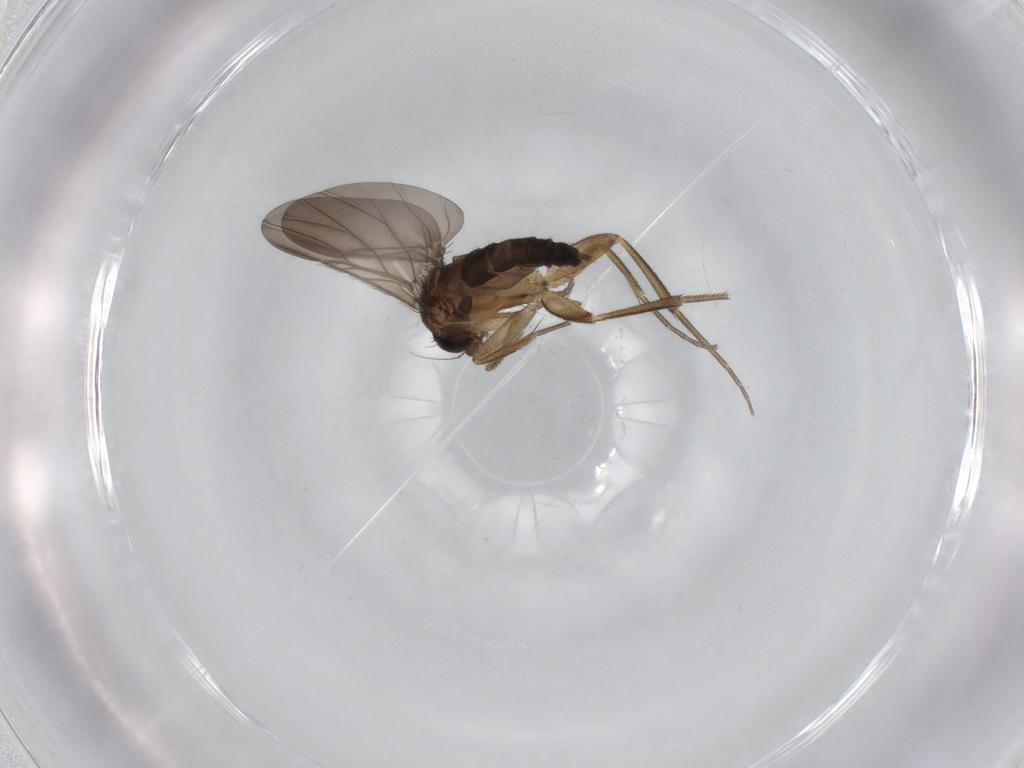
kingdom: Animalia
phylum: Arthropoda
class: Insecta
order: Diptera
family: Phoridae
